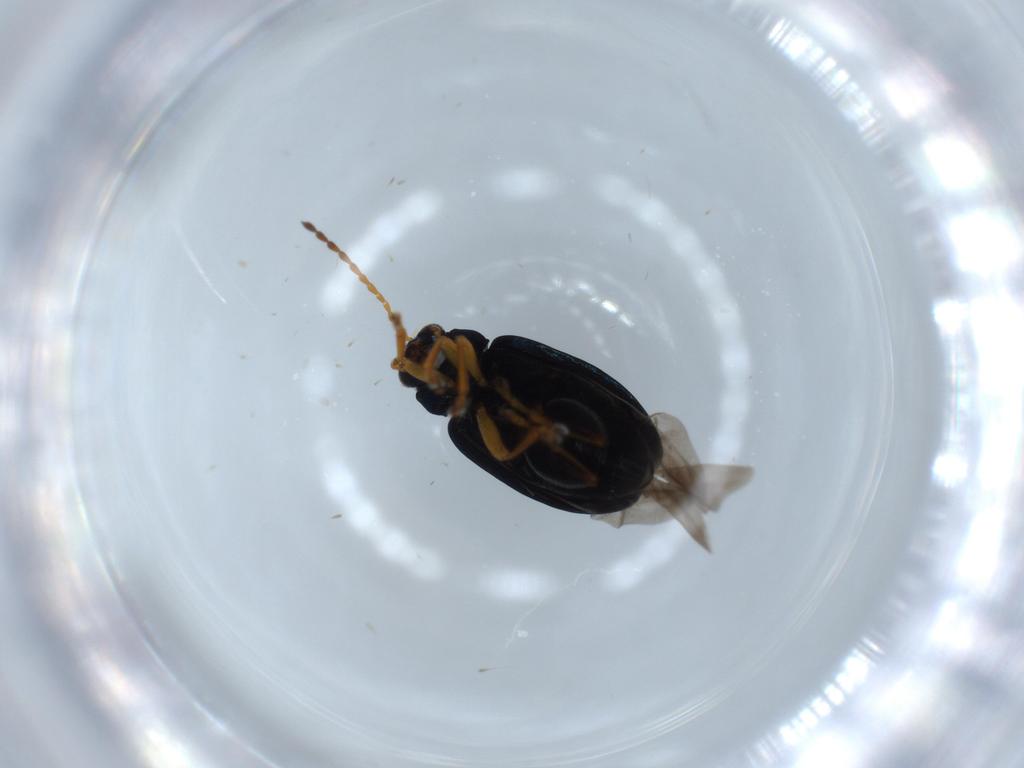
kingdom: Animalia
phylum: Arthropoda
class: Insecta
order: Coleoptera
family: Chrysomelidae
